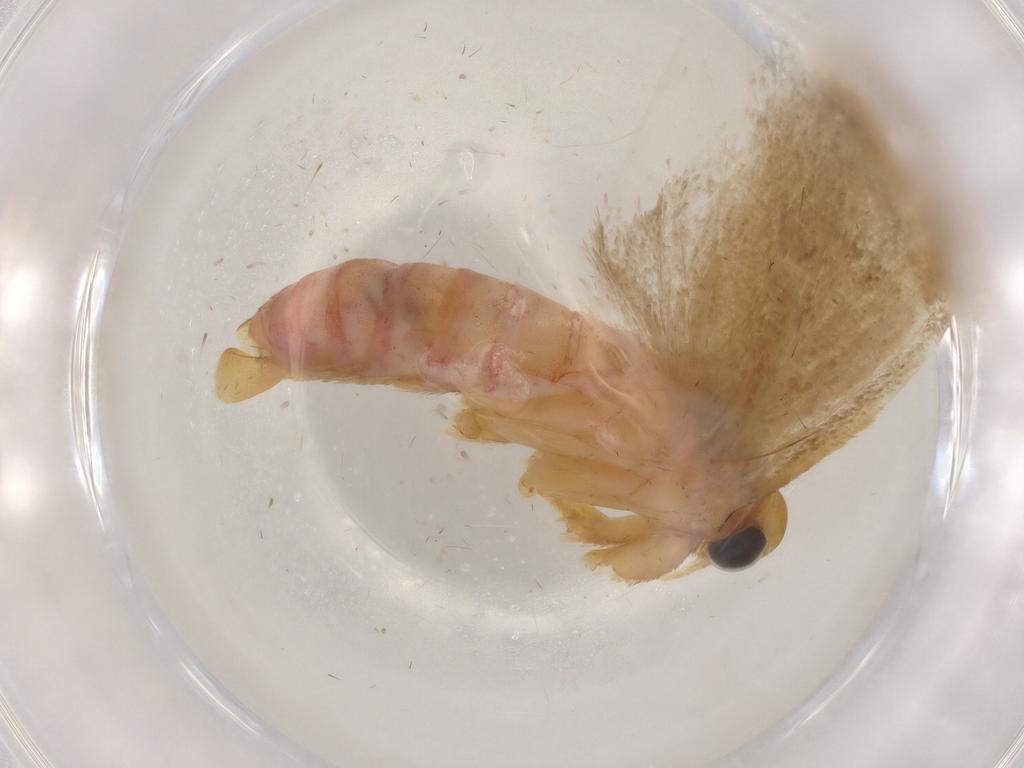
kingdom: Animalia
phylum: Arthropoda
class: Insecta
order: Lepidoptera
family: Gelechiidae
